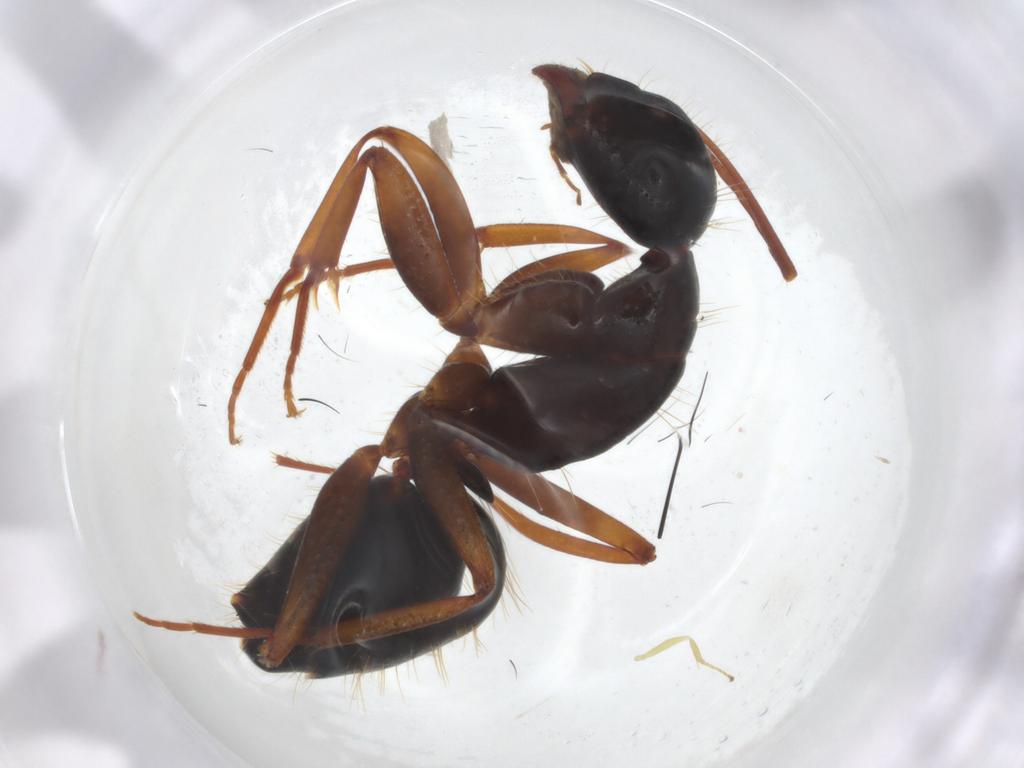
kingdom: Animalia
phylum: Arthropoda
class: Insecta
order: Hymenoptera
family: Formicidae
